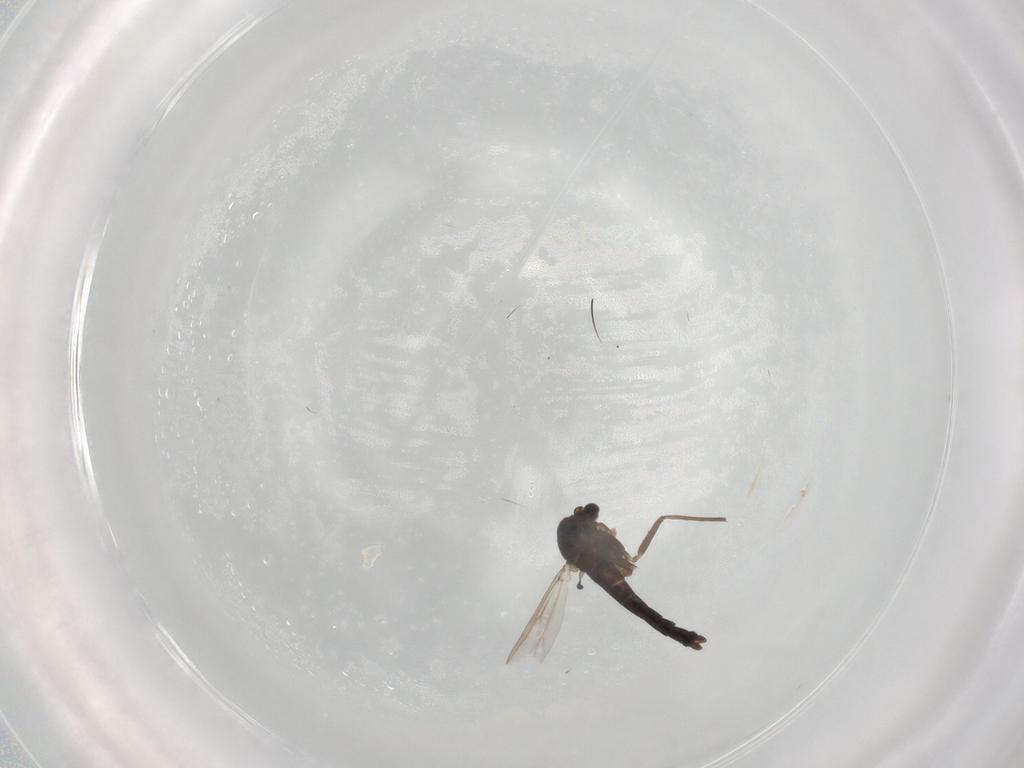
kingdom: Animalia
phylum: Arthropoda
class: Insecta
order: Diptera
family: Chironomidae
